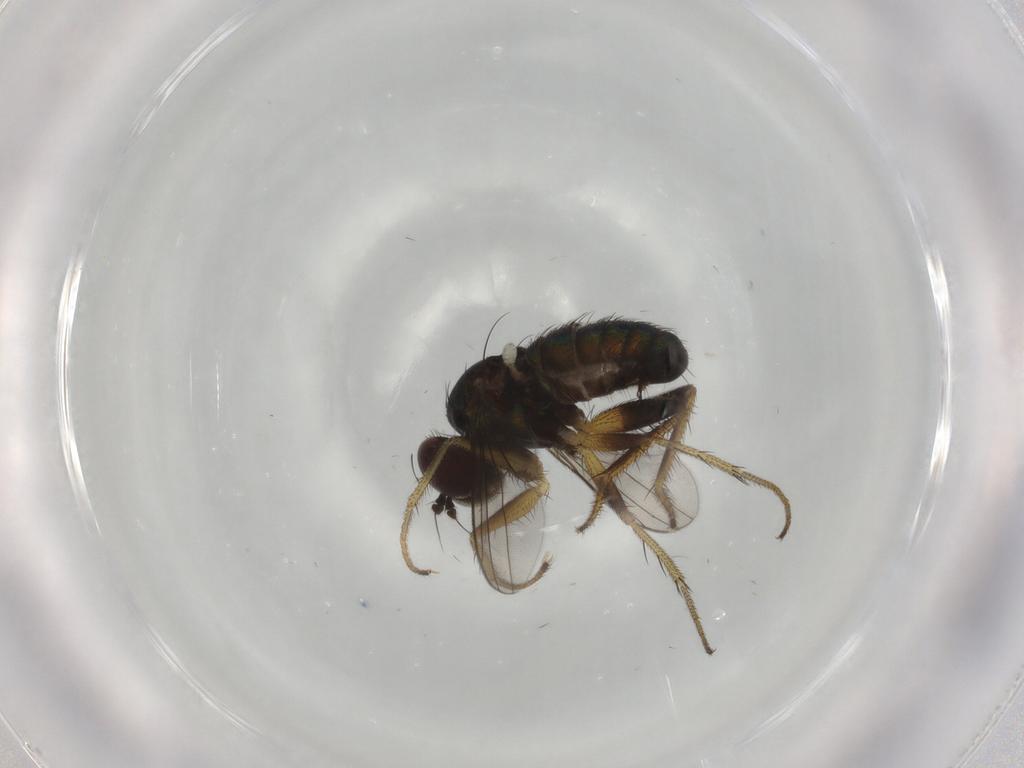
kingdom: Animalia
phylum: Arthropoda
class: Insecta
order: Diptera
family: Dolichopodidae
